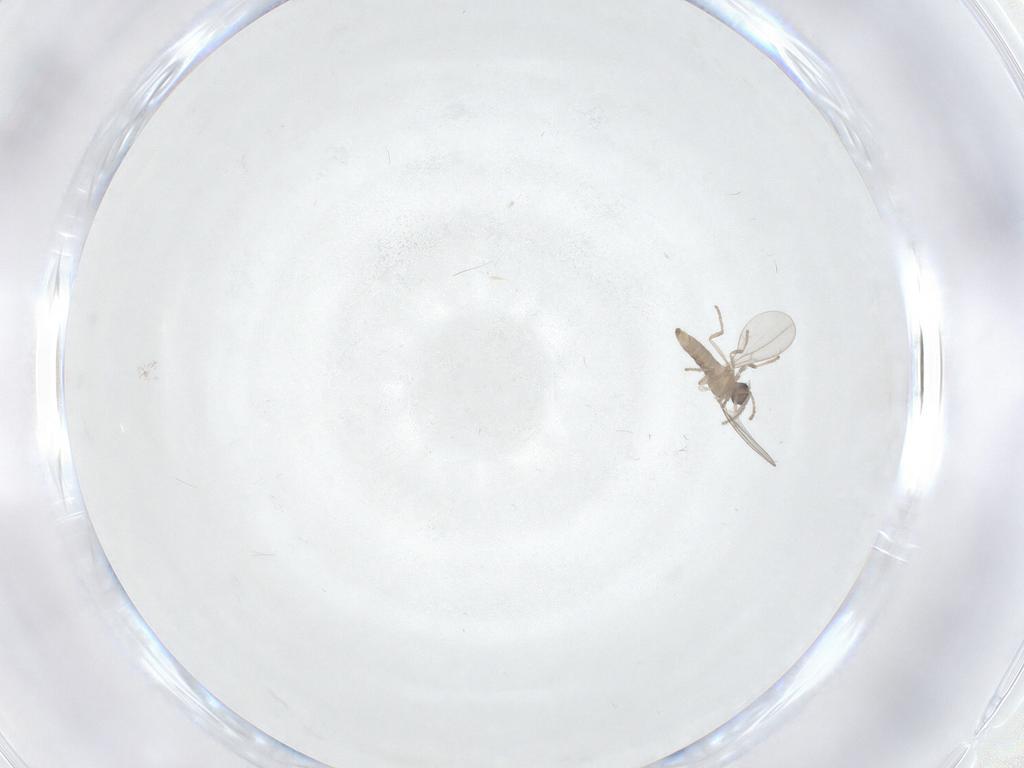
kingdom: Animalia
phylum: Arthropoda
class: Insecta
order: Diptera
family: Cecidomyiidae
